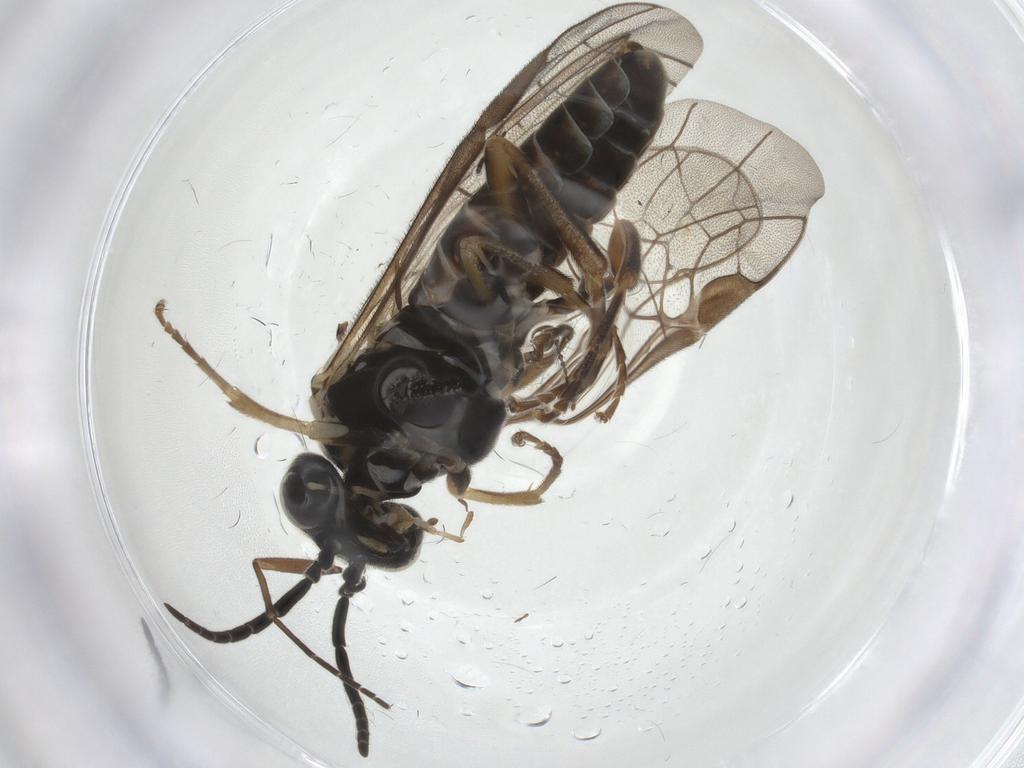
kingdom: Animalia
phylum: Arthropoda
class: Insecta
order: Hymenoptera
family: Tenthredinidae
